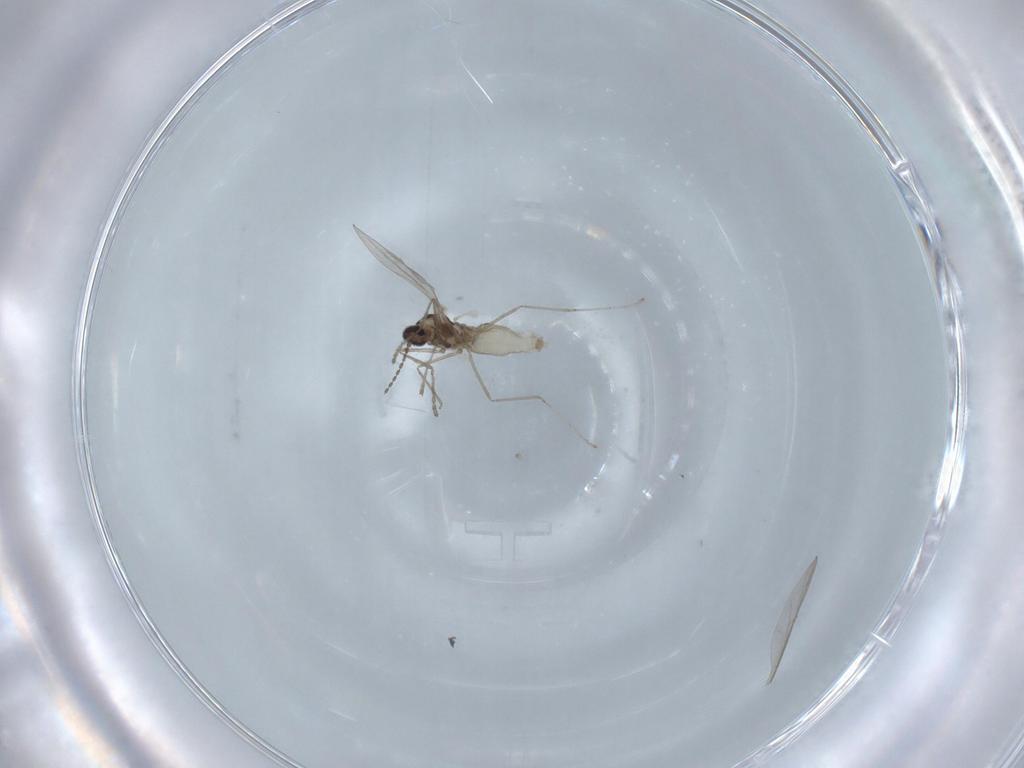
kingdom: Animalia
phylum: Arthropoda
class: Insecta
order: Diptera
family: Cecidomyiidae
